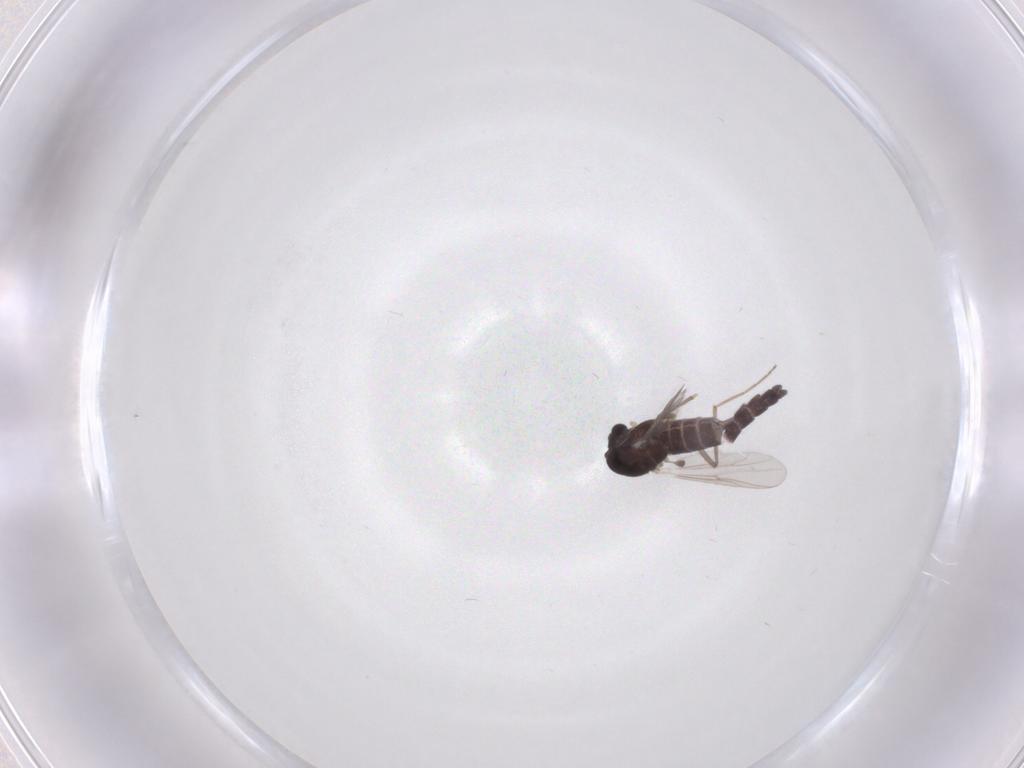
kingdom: Animalia
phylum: Arthropoda
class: Insecta
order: Diptera
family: Chironomidae
